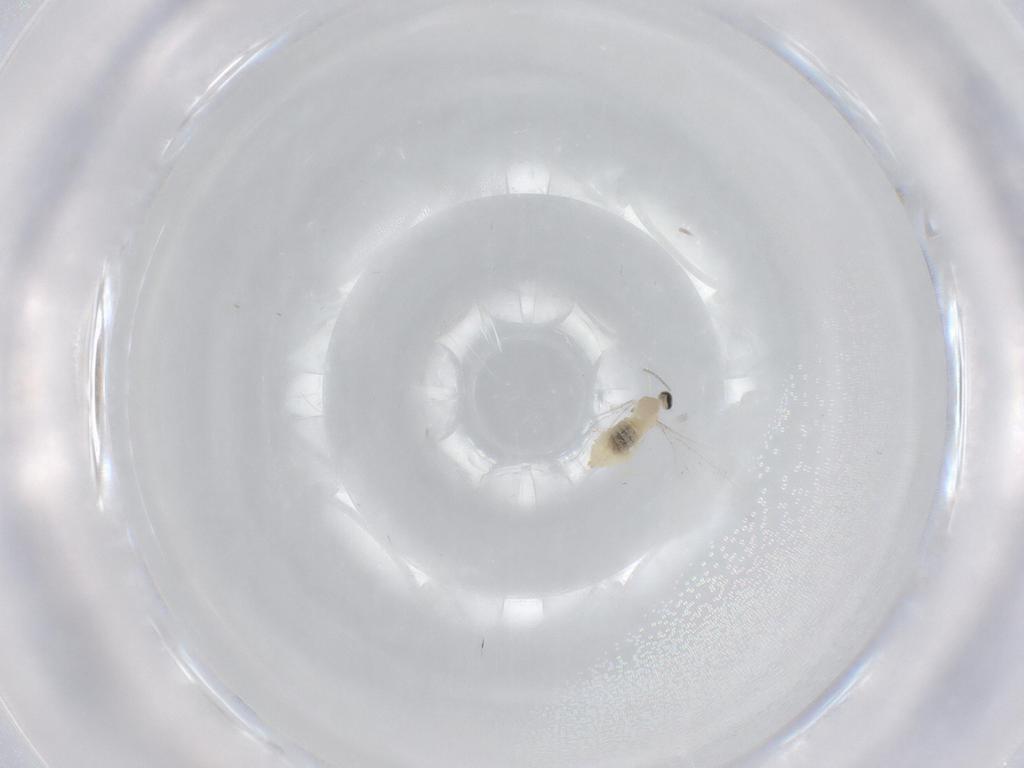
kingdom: Animalia
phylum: Arthropoda
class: Insecta
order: Diptera
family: Cecidomyiidae
